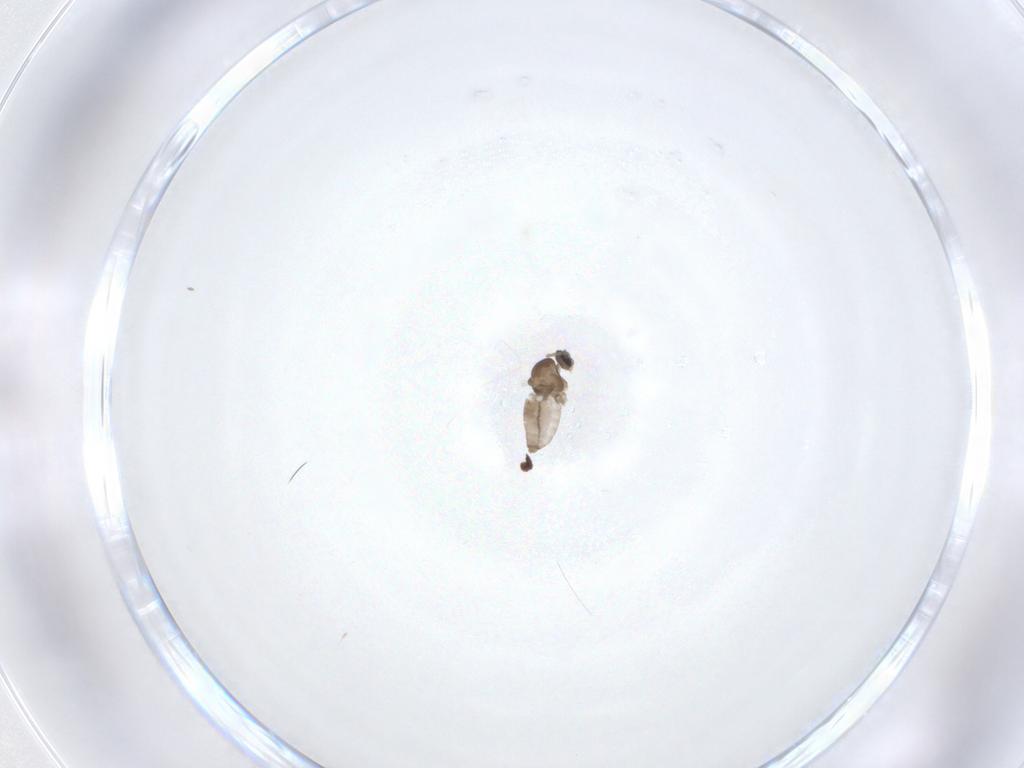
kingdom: Animalia
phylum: Arthropoda
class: Insecta
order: Diptera
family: Cecidomyiidae
